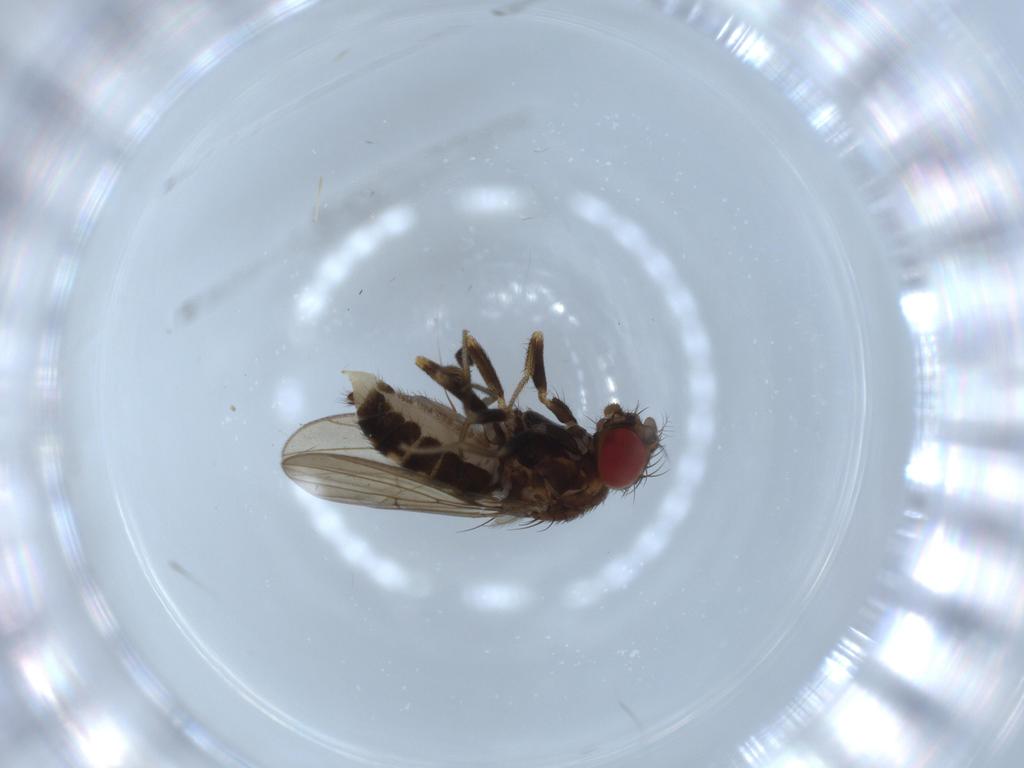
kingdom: Animalia
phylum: Arthropoda
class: Insecta
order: Diptera
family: Drosophilidae
